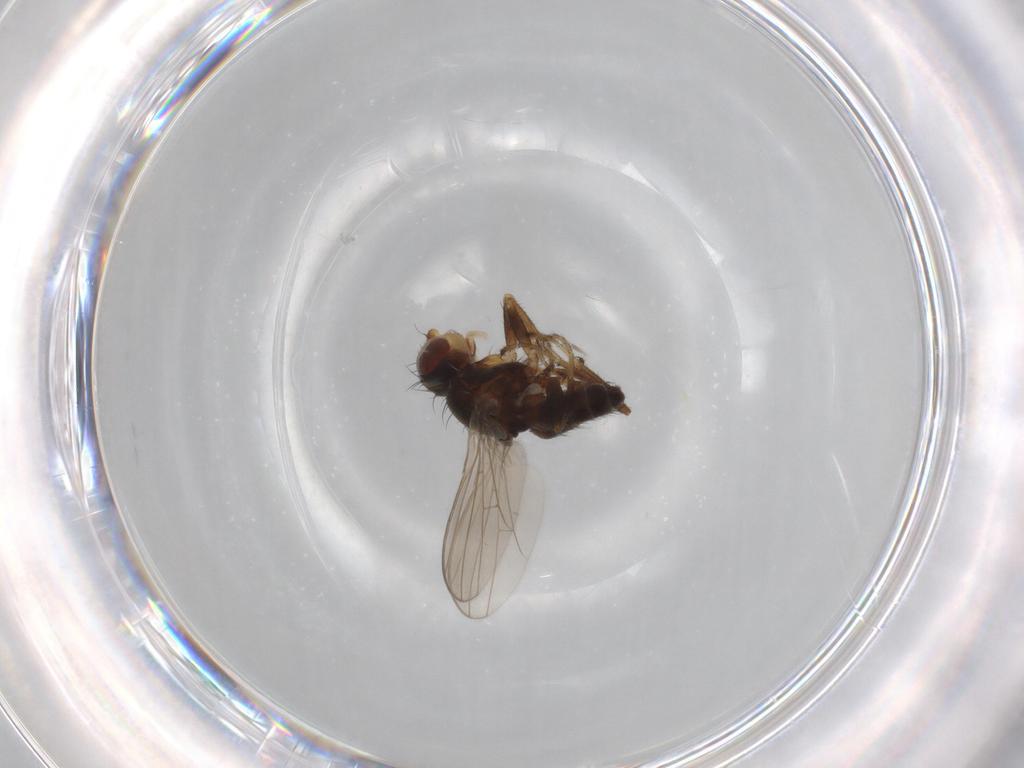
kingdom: Animalia
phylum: Arthropoda
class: Insecta
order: Diptera
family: Canacidae
